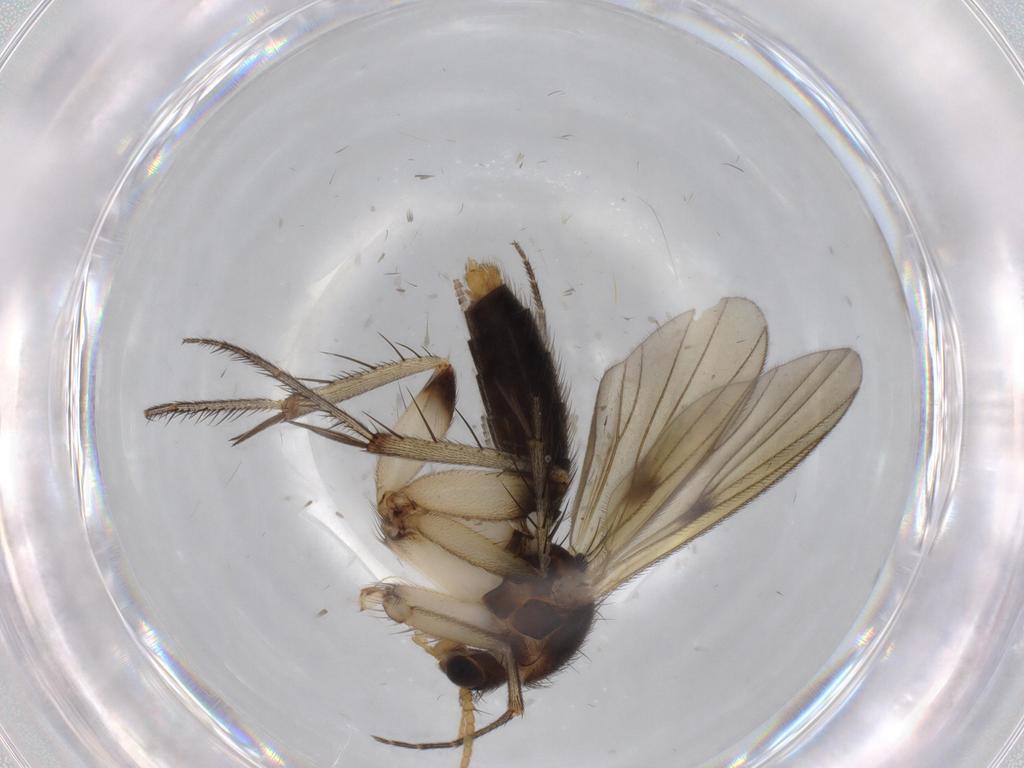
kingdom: Animalia
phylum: Arthropoda
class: Insecta
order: Diptera
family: Mycetophilidae
